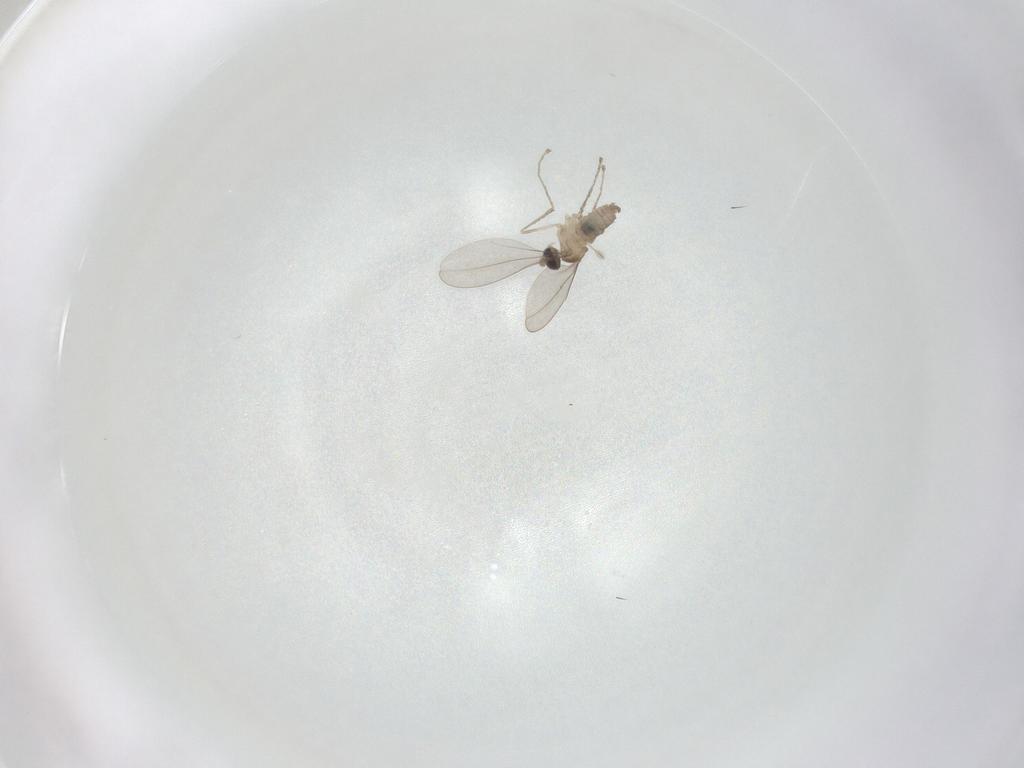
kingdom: Animalia
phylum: Arthropoda
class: Insecta
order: Diptera
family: Cecidomyiidae
